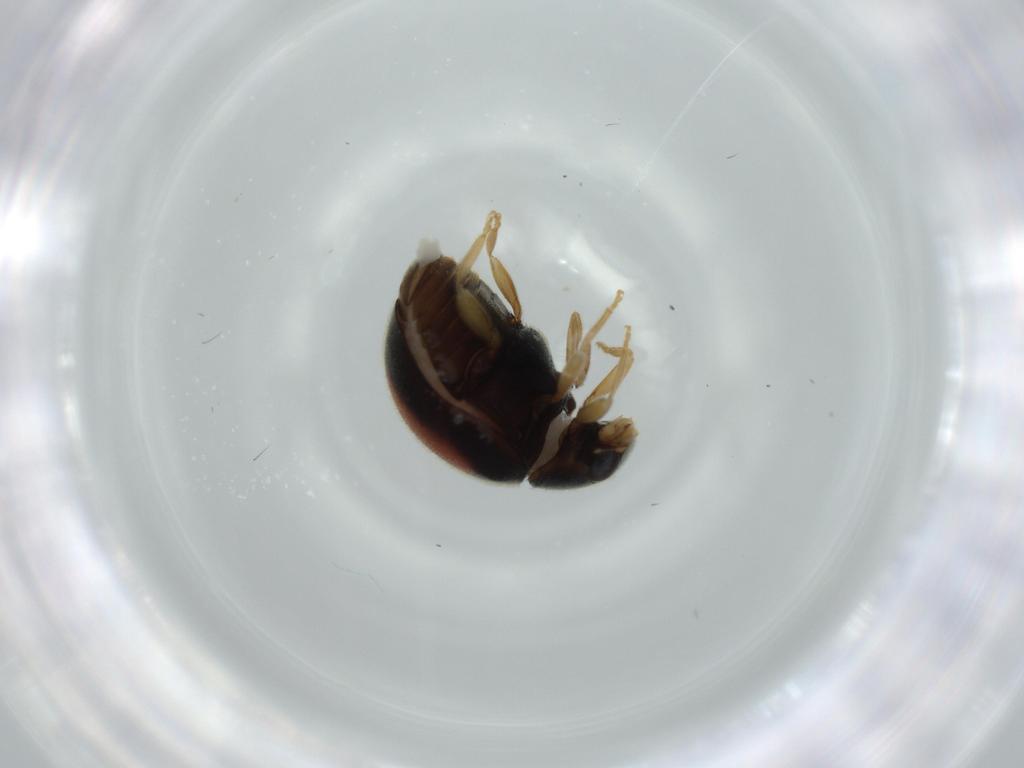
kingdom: Animalia
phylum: Arthropoda
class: Insecta
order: Coleoptera
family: Coccinellidae
